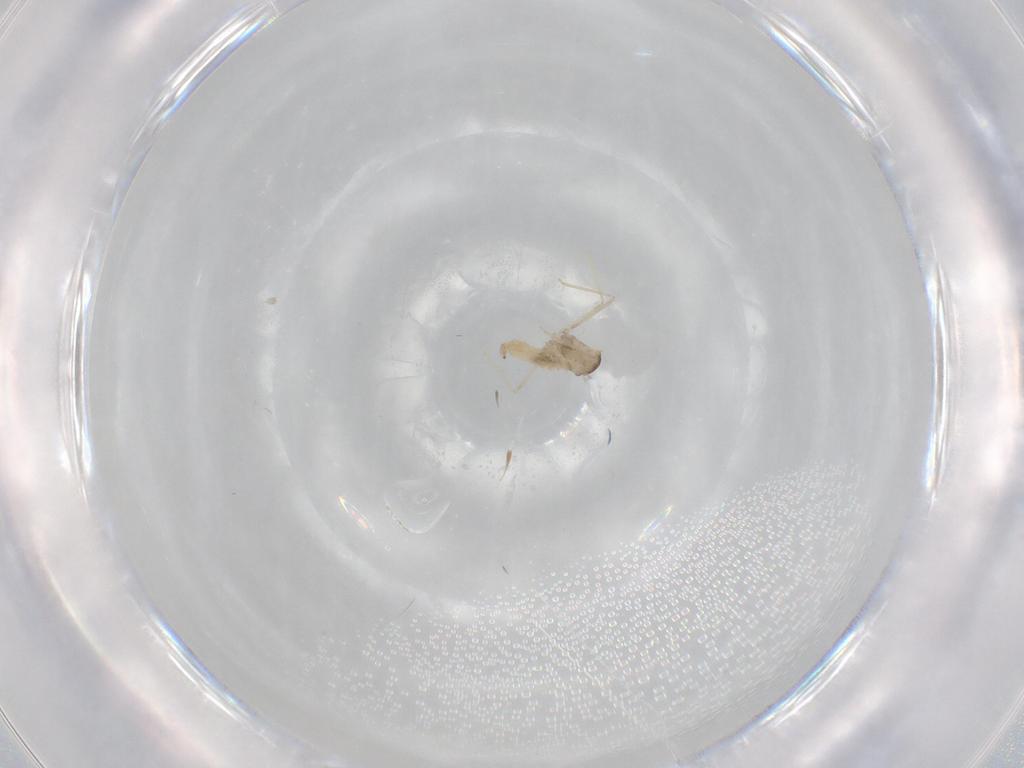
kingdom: Animalia
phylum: Arthropoda
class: Insecta
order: Diptera
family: Cecidomyiidae
